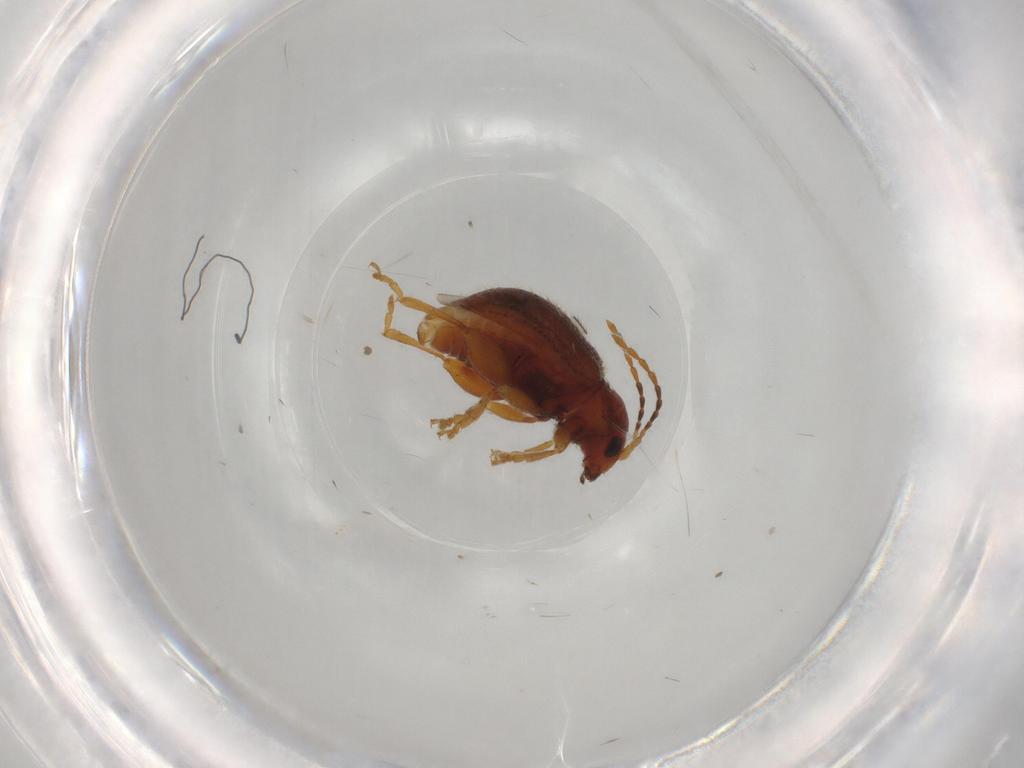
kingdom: Animalia
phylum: Arthropoda
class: Insecta
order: Coleoptera
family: Chrysomelidae
